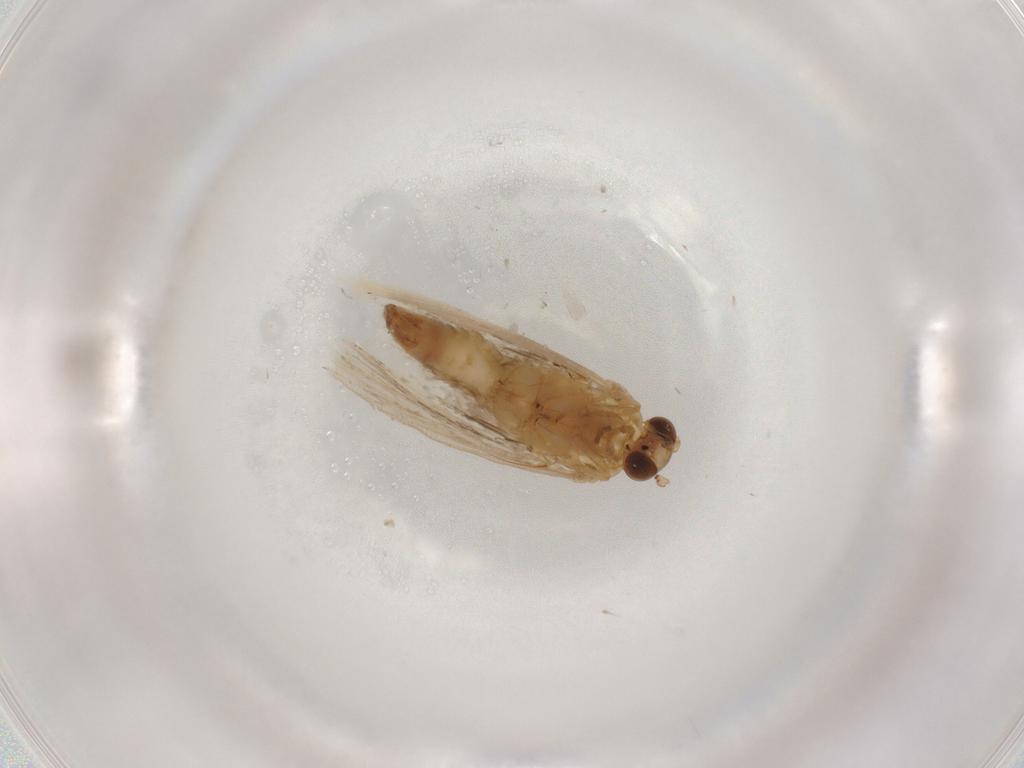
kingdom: Animalia
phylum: Arthropoda
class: Insecta
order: Lepidoptera
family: Tortricidae
